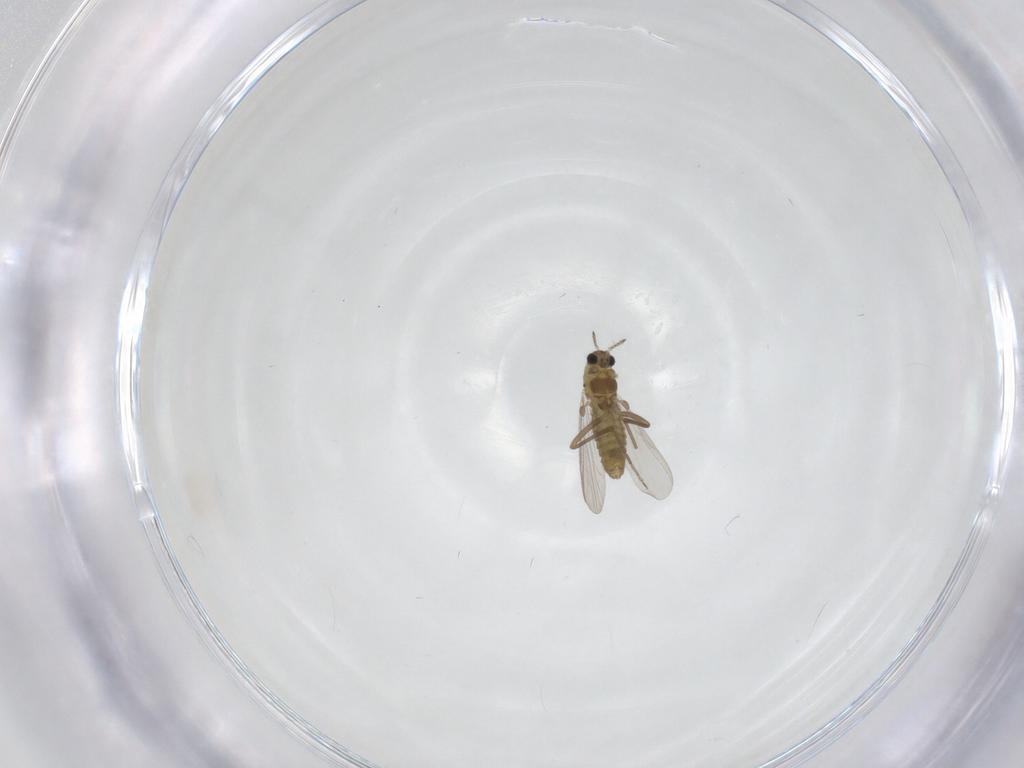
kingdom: Animalia
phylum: Arthropoda
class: Insecta
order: Diptera
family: Chironomidae
